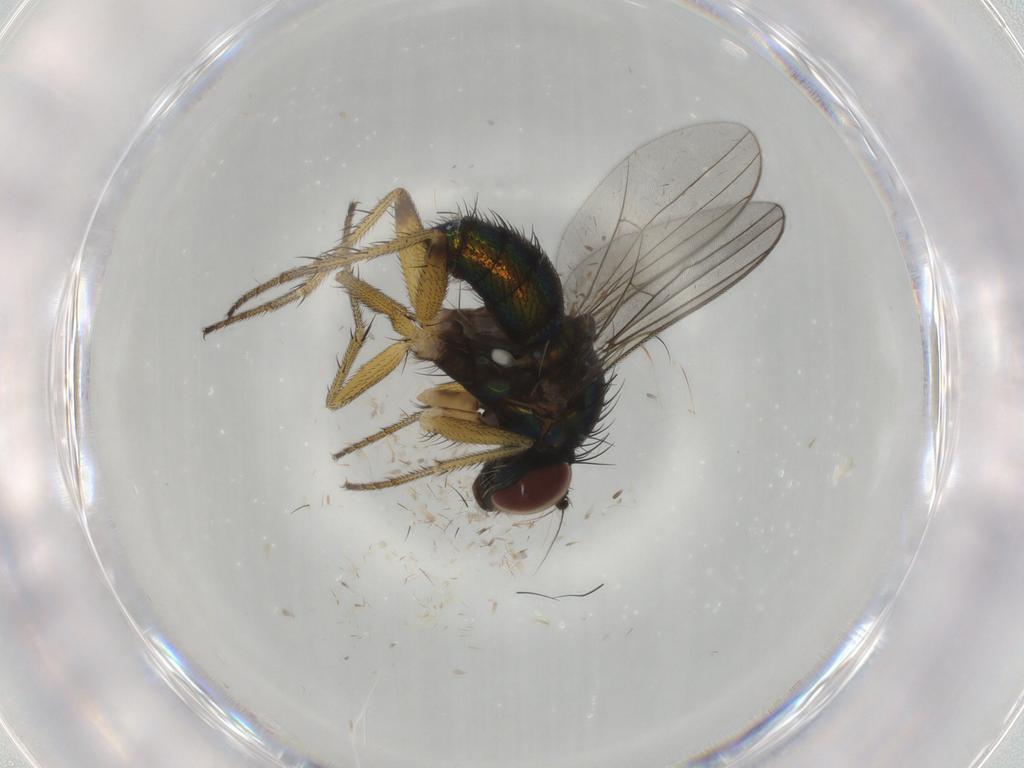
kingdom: Animalia
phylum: Arthropoda
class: Insecta
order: Diptera
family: Dolichopodidae
